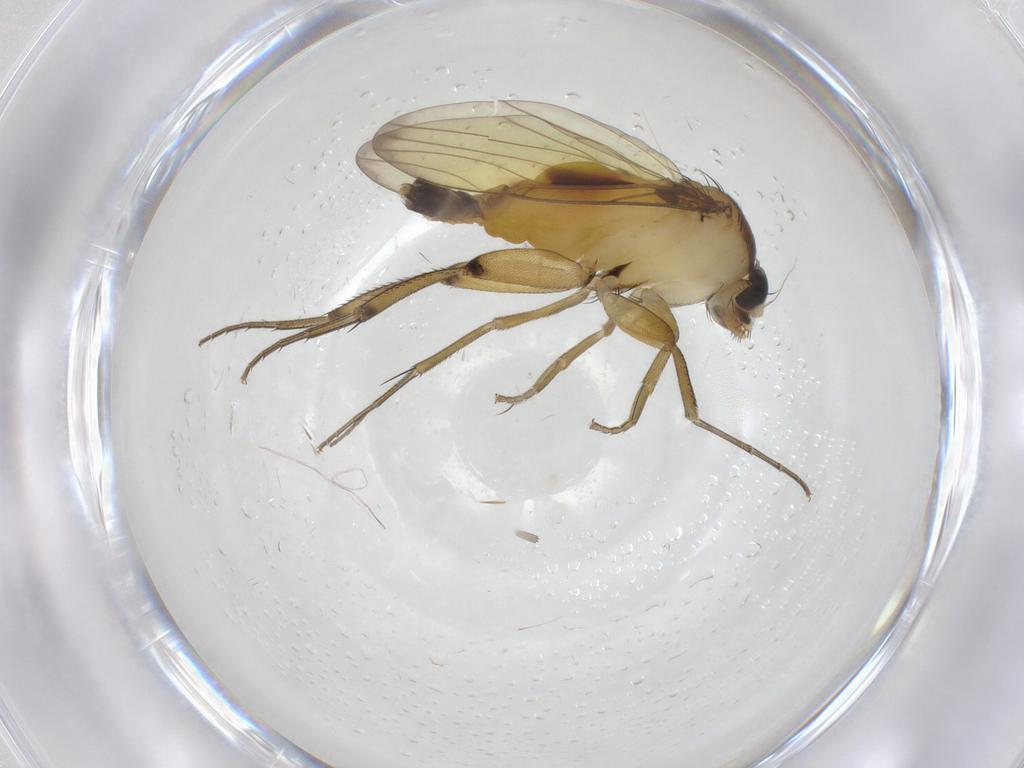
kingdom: Animalia
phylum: Arthropoda
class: Insecta
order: Diptera
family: Phoridae
